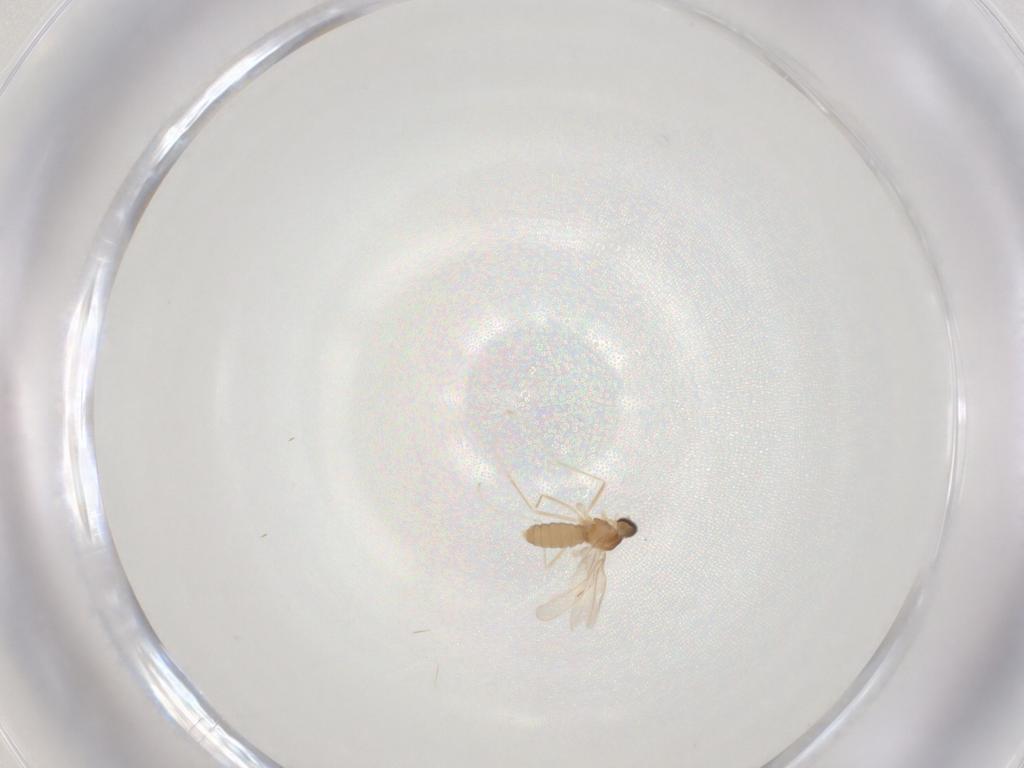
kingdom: Animalia
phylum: Arthropoda
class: Insecta
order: Diptera
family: Cecidomyiidae
